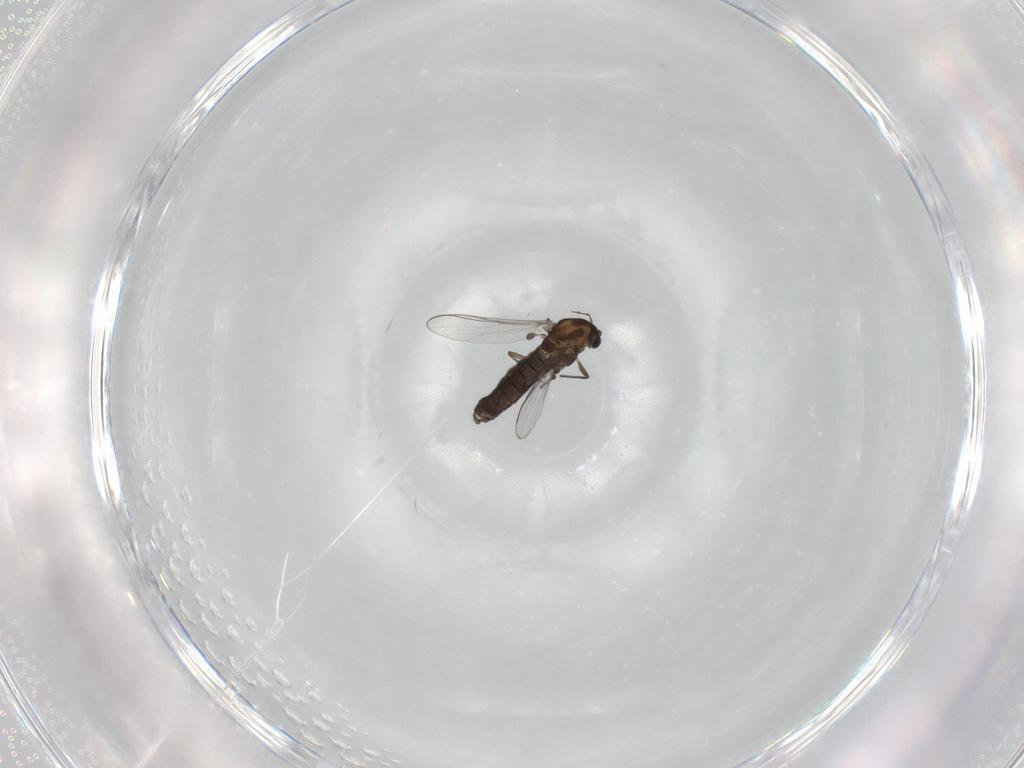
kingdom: Animalia
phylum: Arthropoda
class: Insecta
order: Diptera
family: Chironomidae
